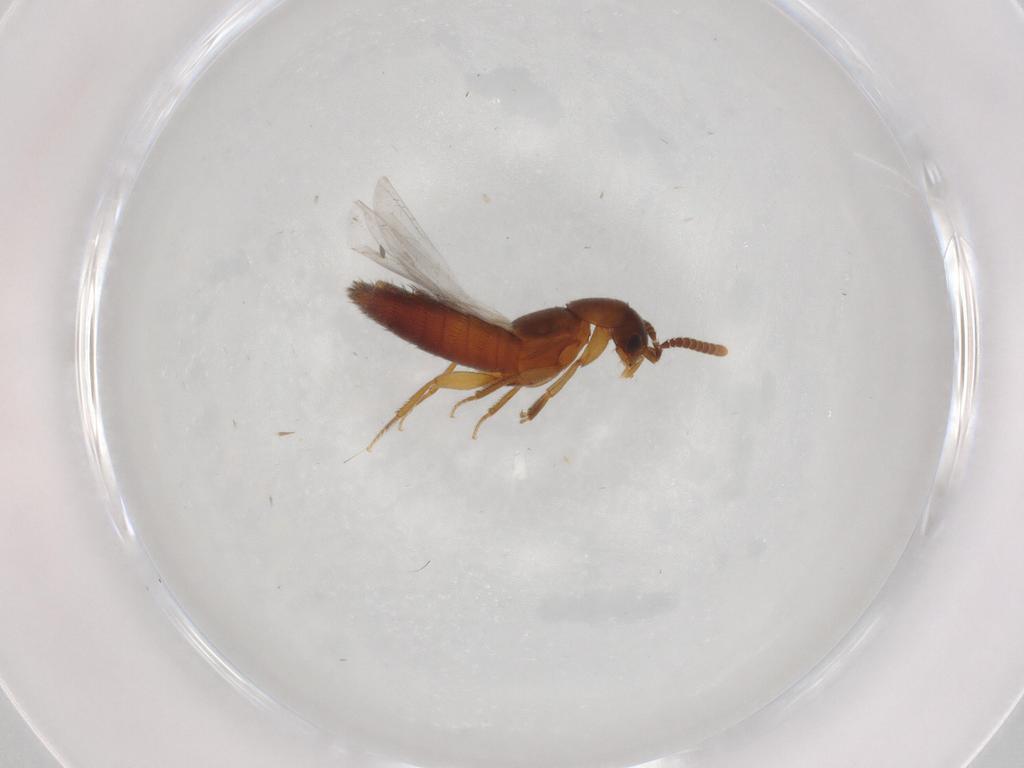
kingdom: Animalia
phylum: Arthropoda
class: Insecta
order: Coleoptera
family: Staphylinidae
